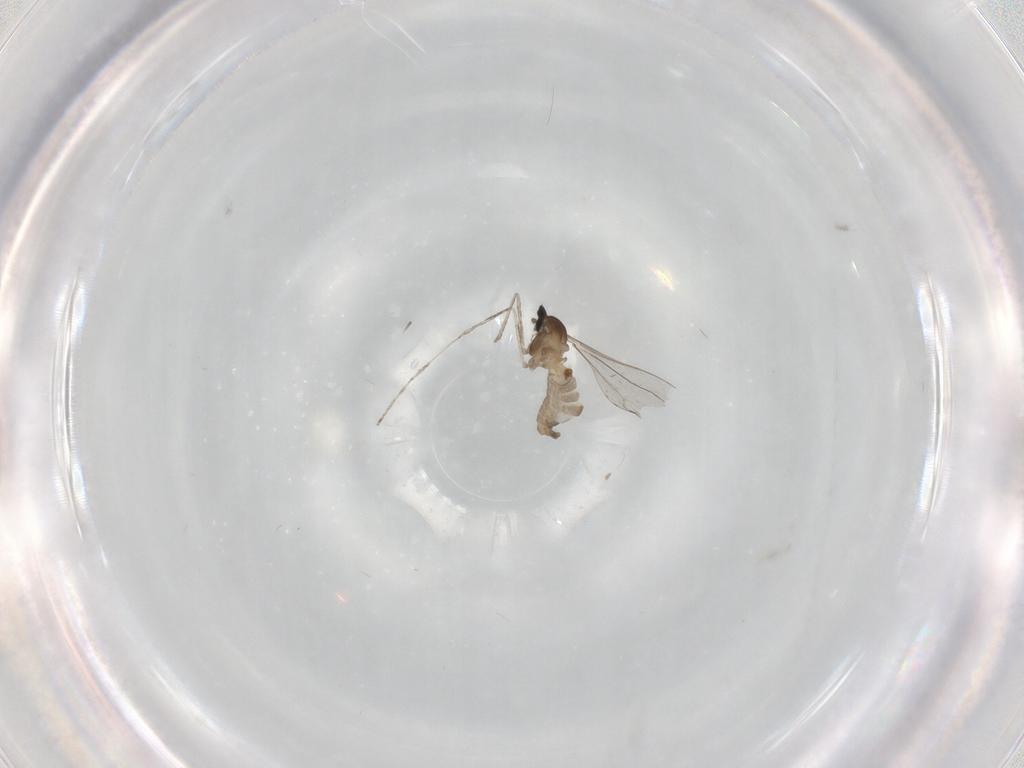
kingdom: Animalia
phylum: Arthropoda
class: Insecta
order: Diptera
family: Cecidomyiidae
